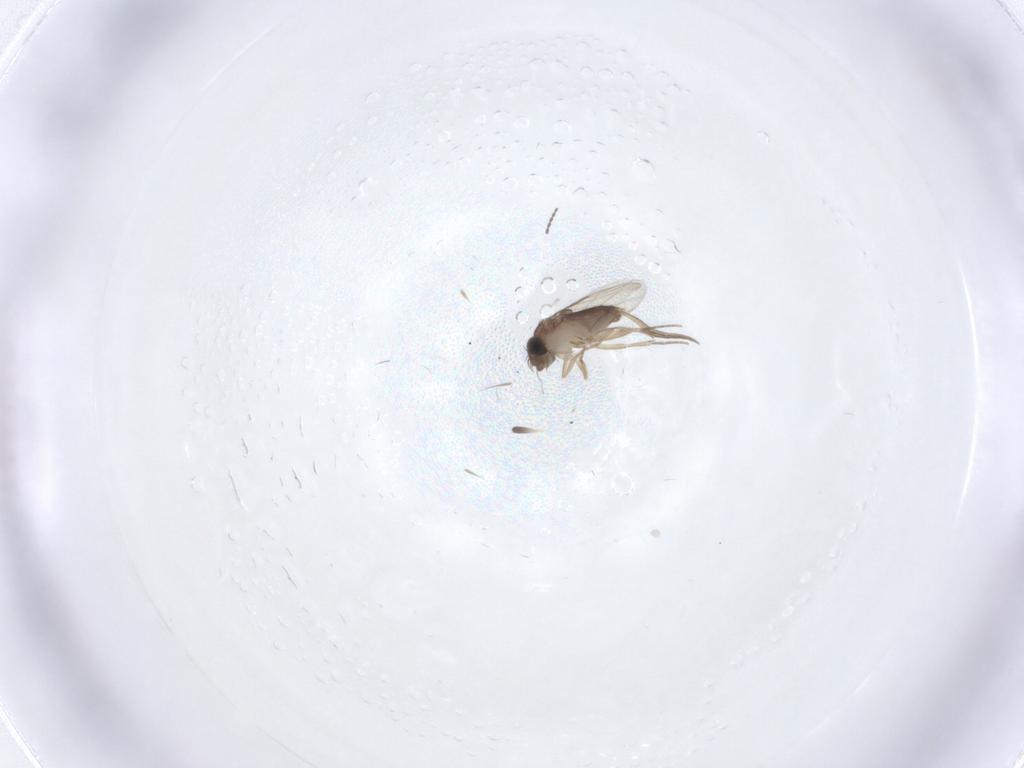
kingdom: Animalia
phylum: Arthropoda
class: Insecta
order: Diptera
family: Phoridae
